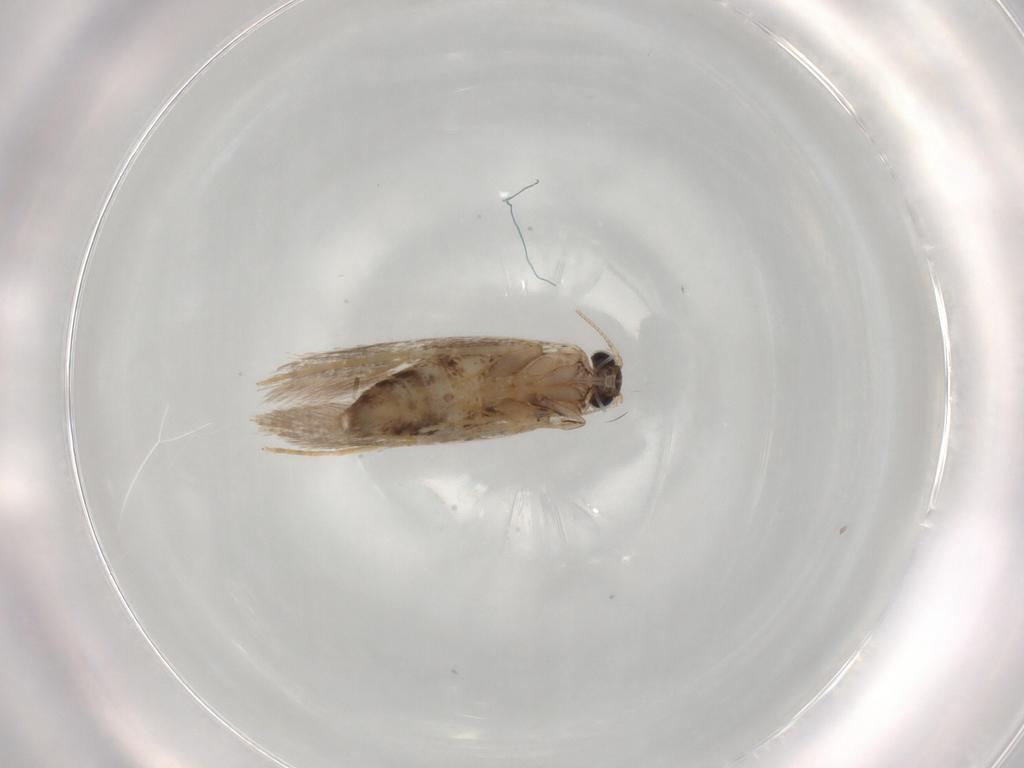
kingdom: Animalia
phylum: Arthropoda
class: Insecta
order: Lepidoptera
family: Tineidae
